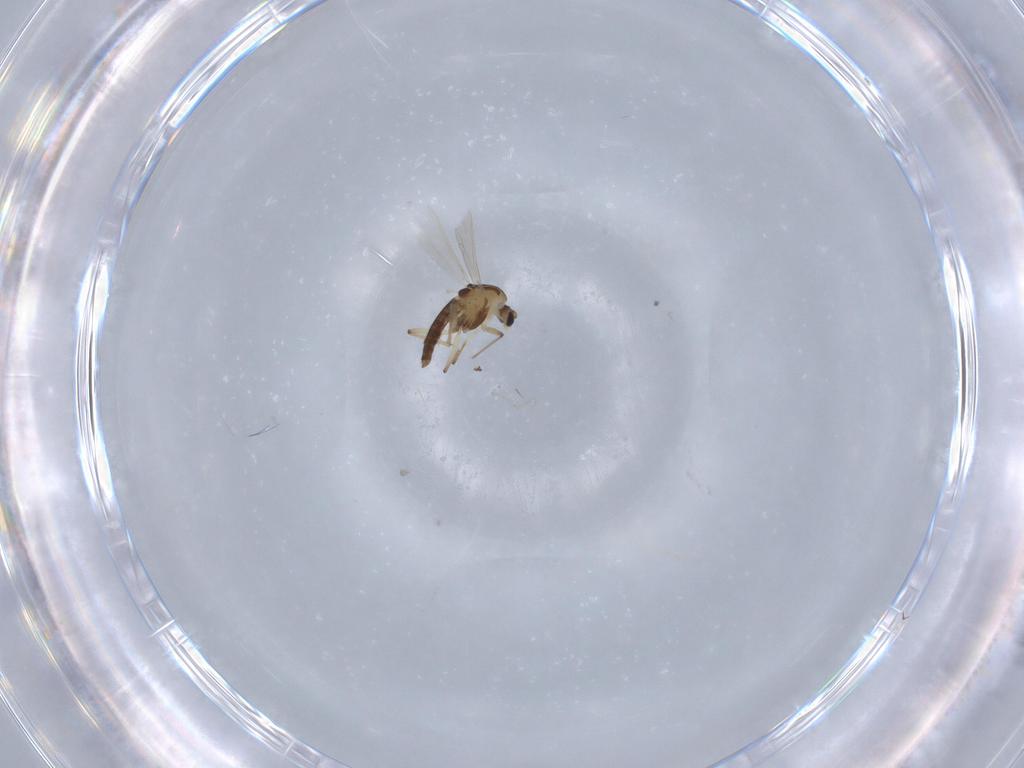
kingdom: Animalia
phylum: Arthropoda
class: Insecta
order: Diptera
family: Chironomidae
